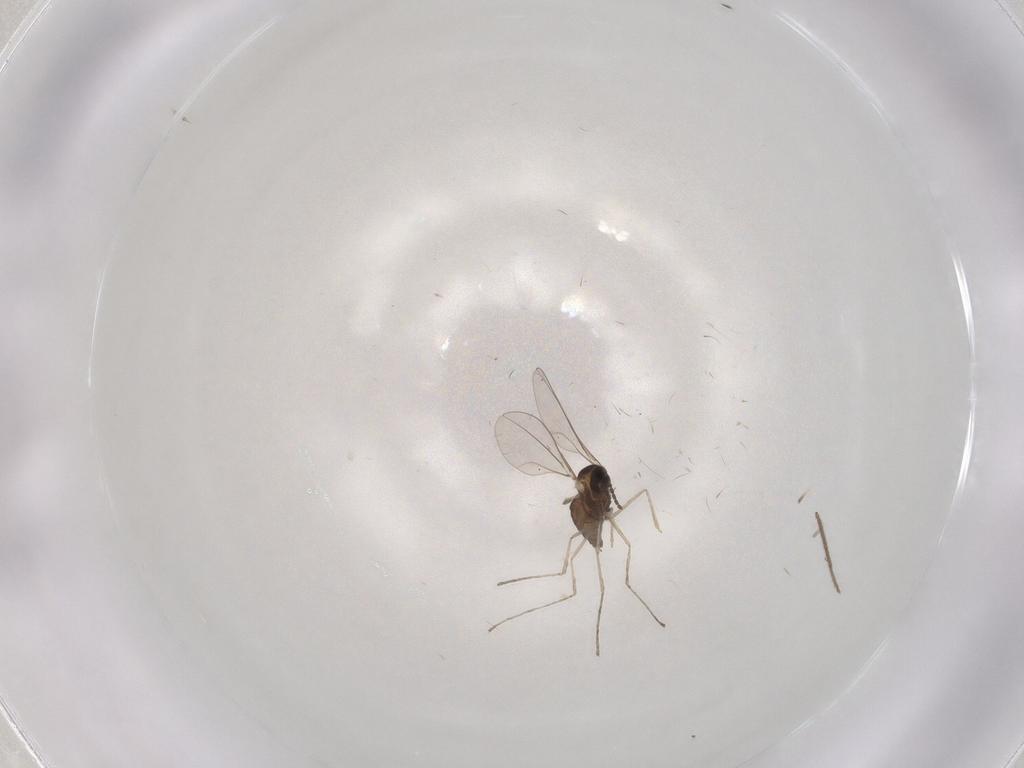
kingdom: Animalia
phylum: Arthropoda
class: Insecta
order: Diptera
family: Cecidomyiidae
